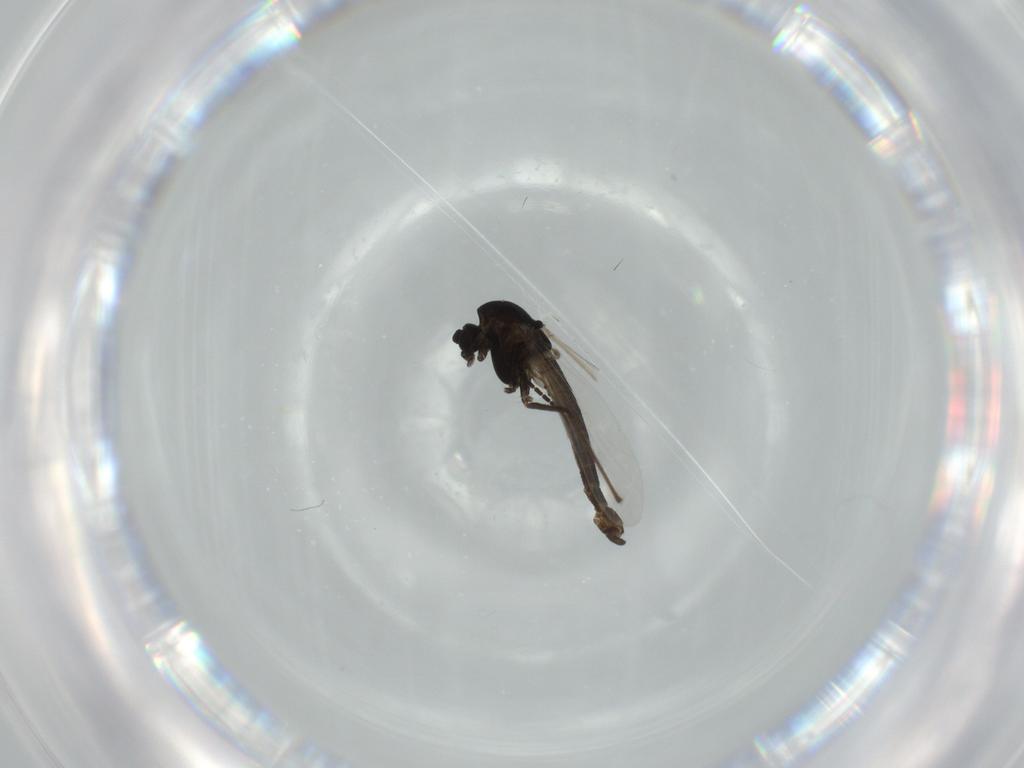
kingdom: Animalia
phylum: Arthropoda
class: Insecta
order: Diptera
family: Chironomidae
